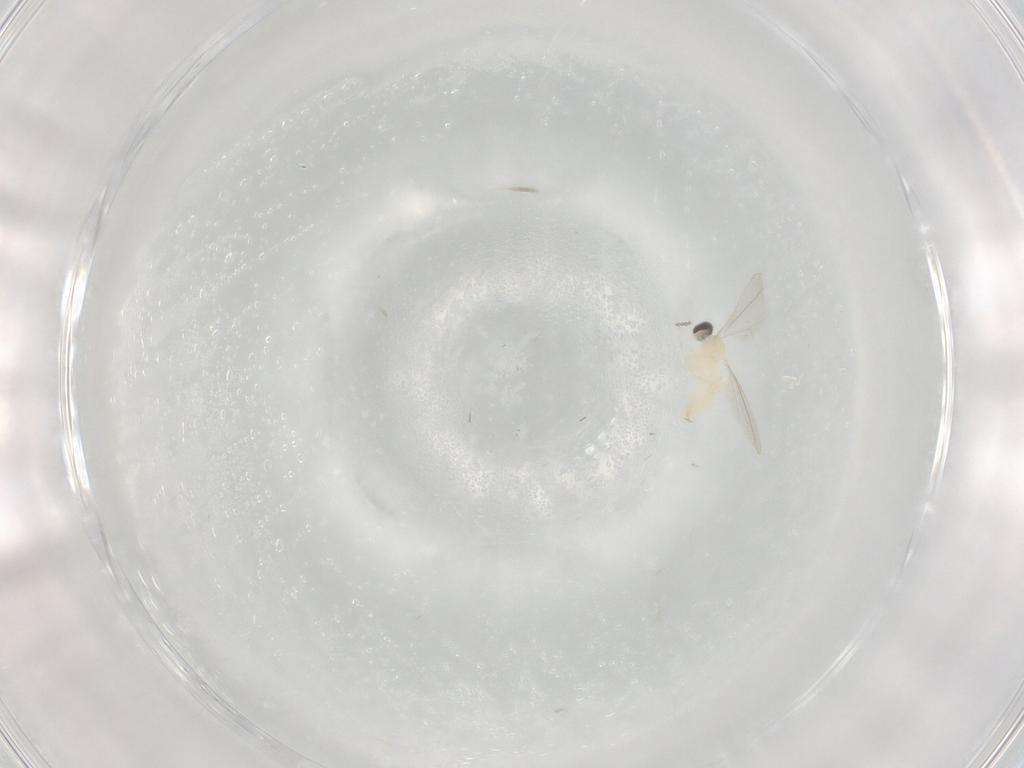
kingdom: Animalia
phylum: Arthropoda
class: Insecta
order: Diptera
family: Cecidomyiidae
